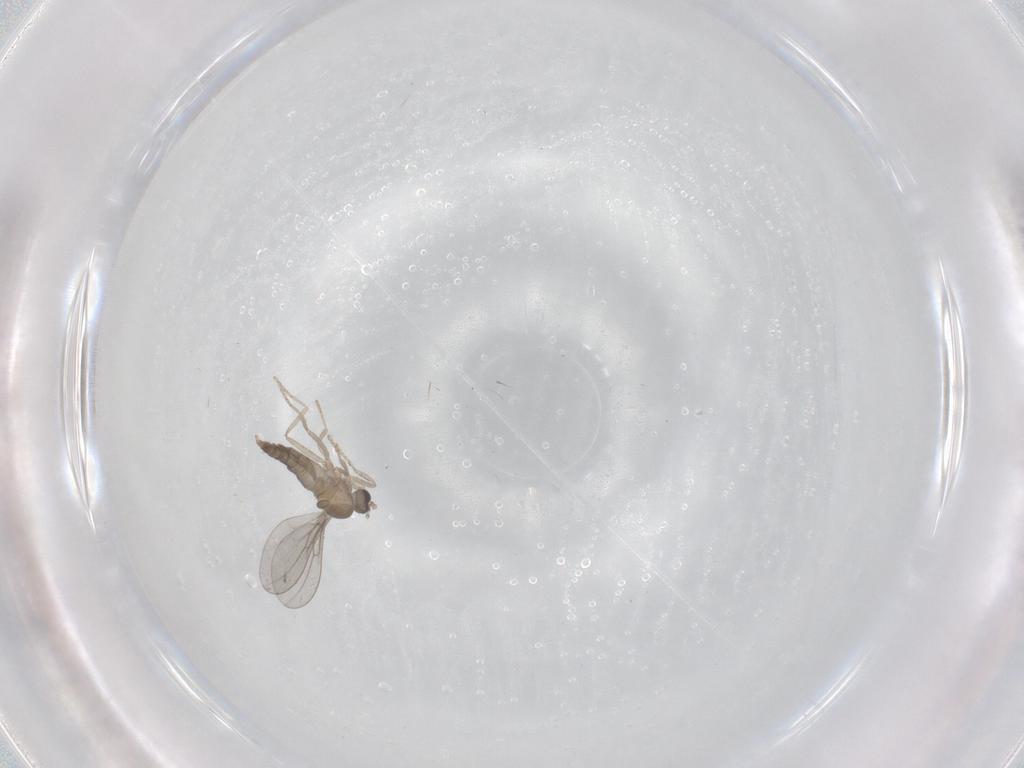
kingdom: Animalia
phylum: Arthropoda
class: Insecta
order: Diptera
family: Cecidomyiidae
